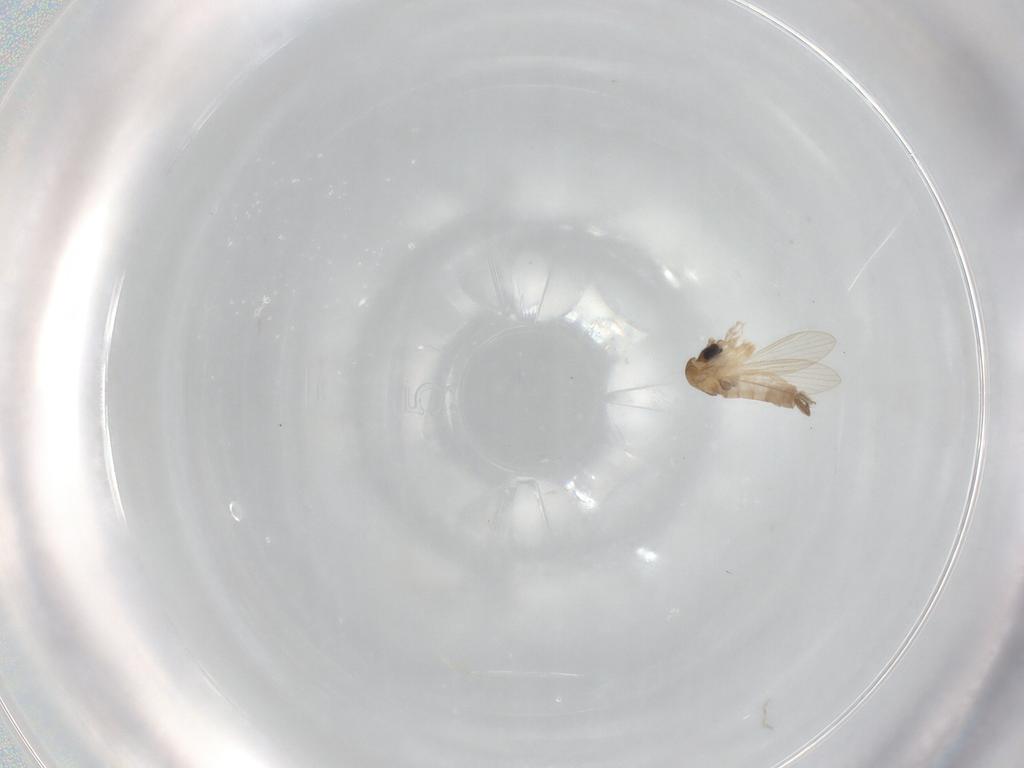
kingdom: Animalia
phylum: Arthropoda
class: Insecta
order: Diptera
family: Psychodidae
